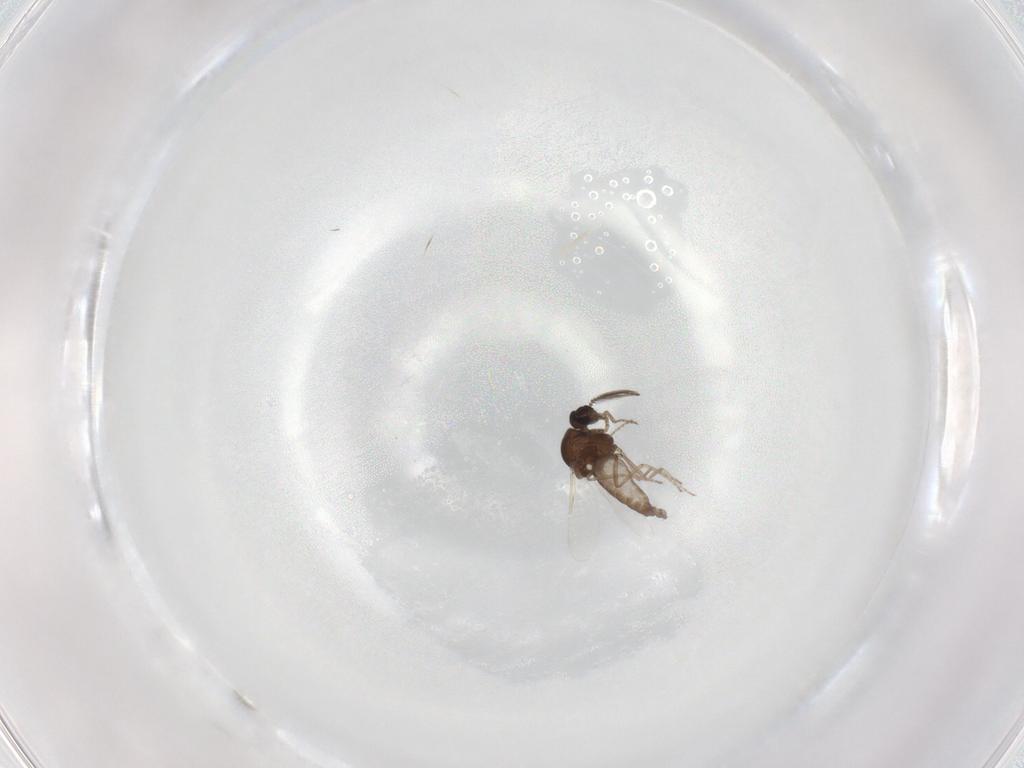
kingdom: Animalia
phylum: Arthropoda
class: Insecta
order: Diptera
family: Ceratopogonidae
